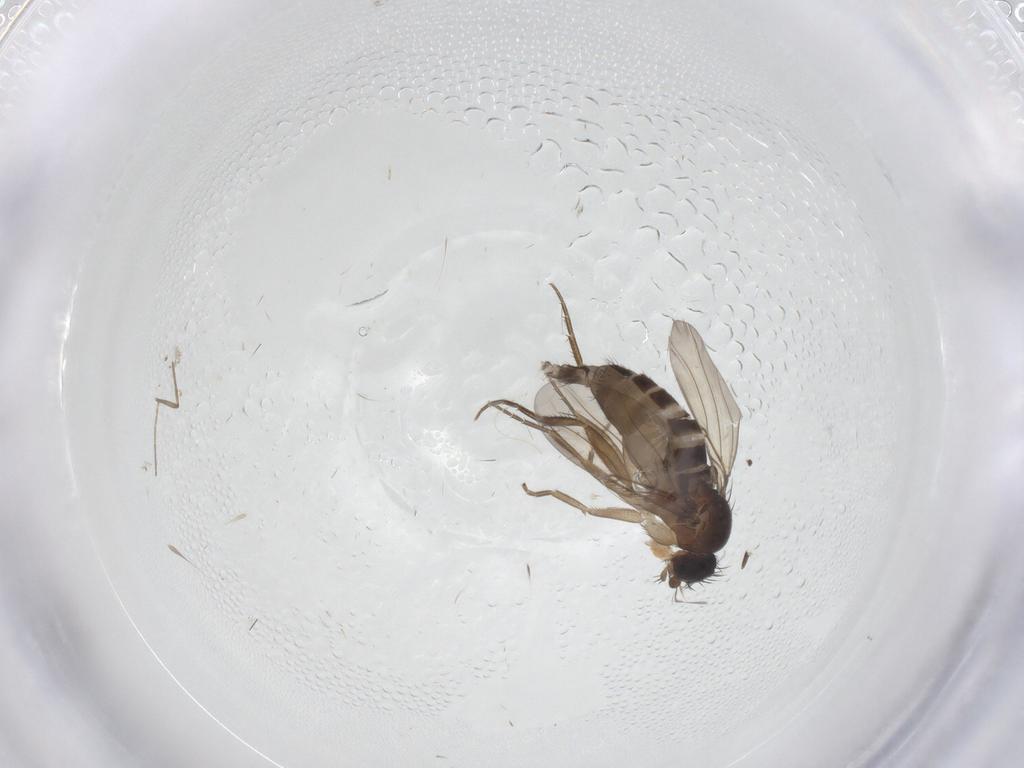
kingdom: Animalia
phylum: Arthropoda
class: Insecta
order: Diptera
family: Phoridae
